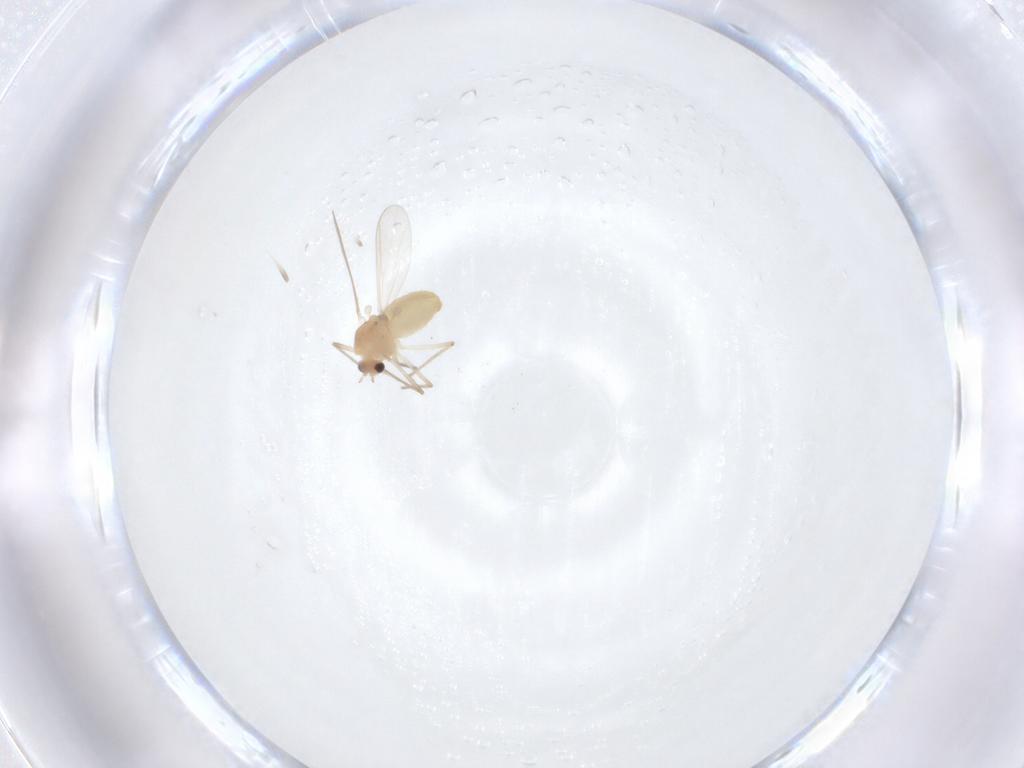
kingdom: Animalia
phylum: Arthropoda
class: Insecta
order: Diptera
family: Chironomidae
